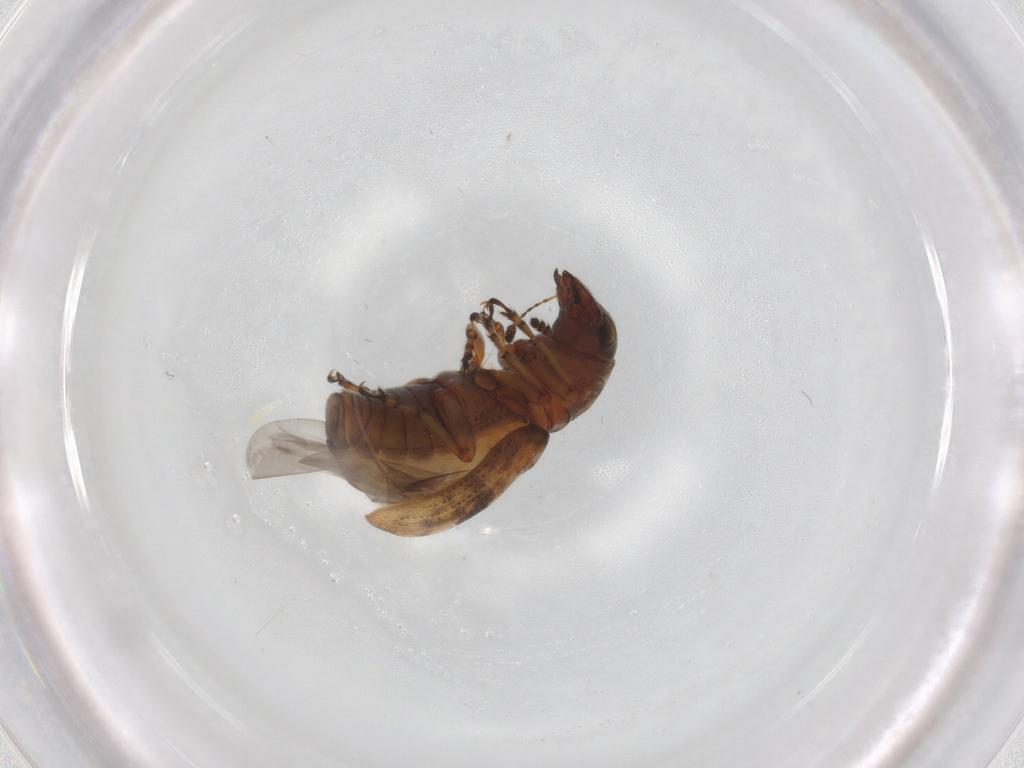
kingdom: Animalia
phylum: Arthropoda
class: Insecta
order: Coleoptera
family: Anthribidae
